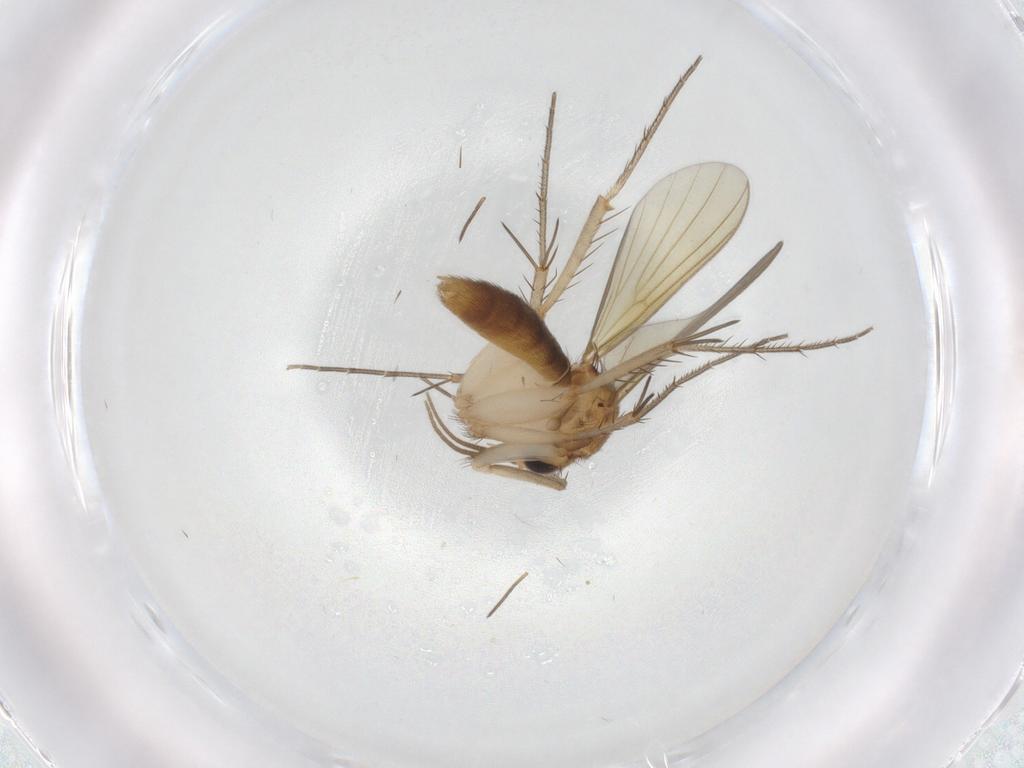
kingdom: Animalia
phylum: Arthropoda
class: Insecta
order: Diptera
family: Mycetophilidae
